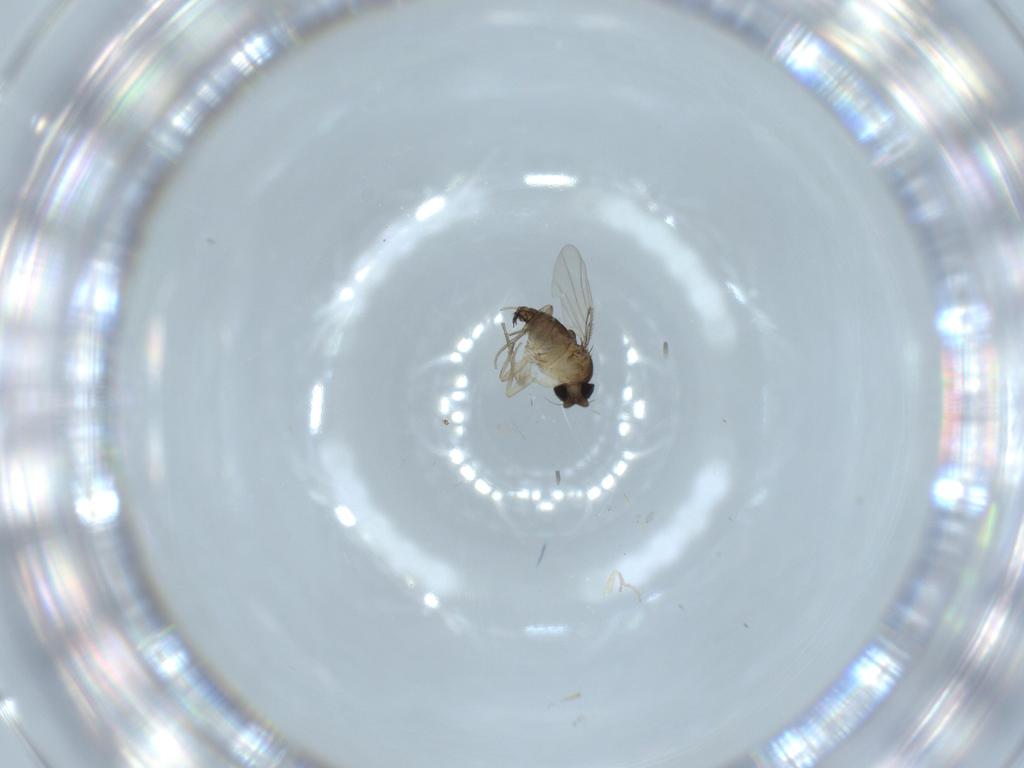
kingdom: Animalia
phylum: Arthropoda
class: Insecta
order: Diptera
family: Phoridae
